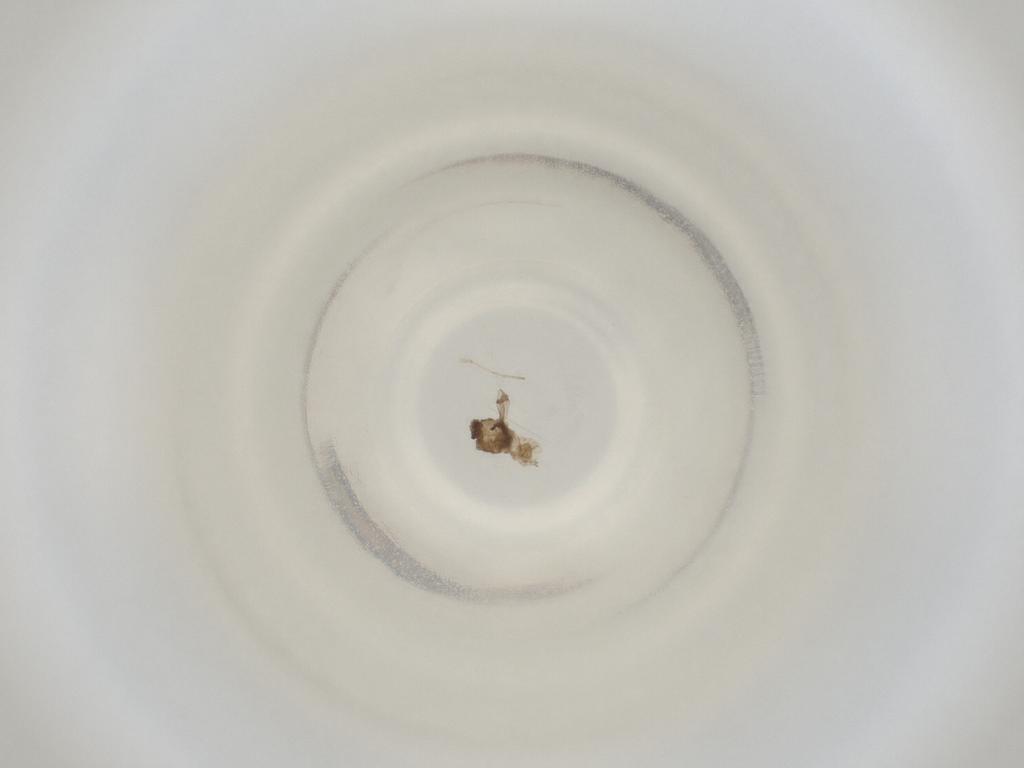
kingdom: Animalia
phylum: Arthropoda
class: Insecta
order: Diptera
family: Cecidomyiidae
